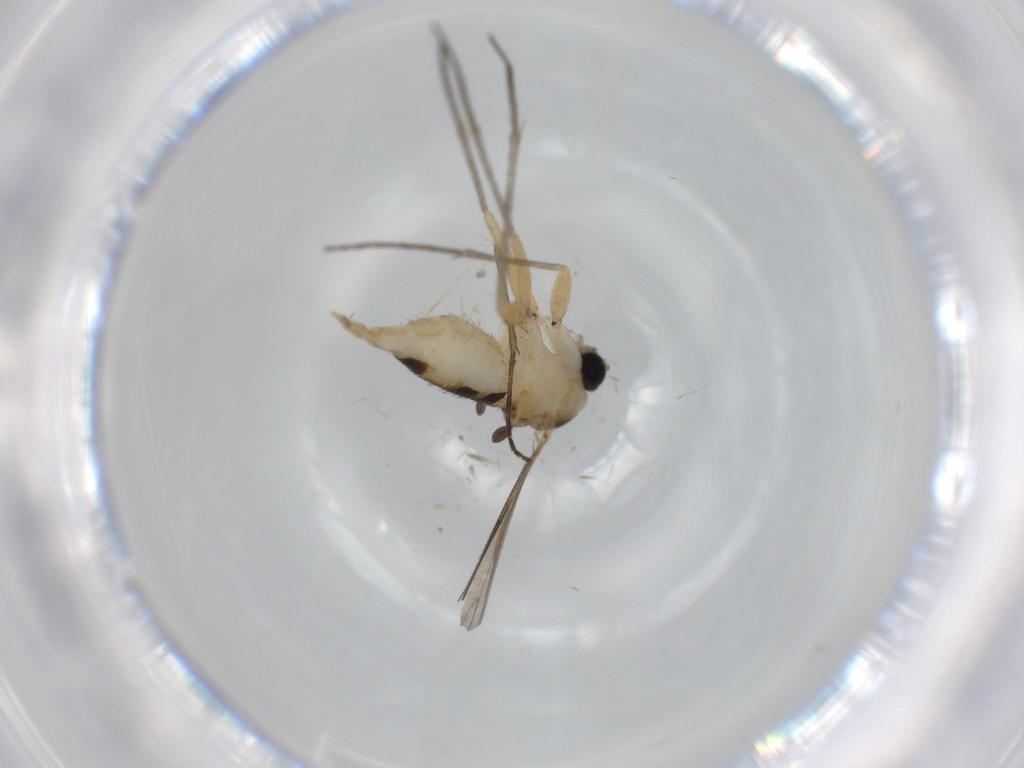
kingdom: Animalia
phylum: Arthropoda
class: Insecta
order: Diptera
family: Sciaridae
